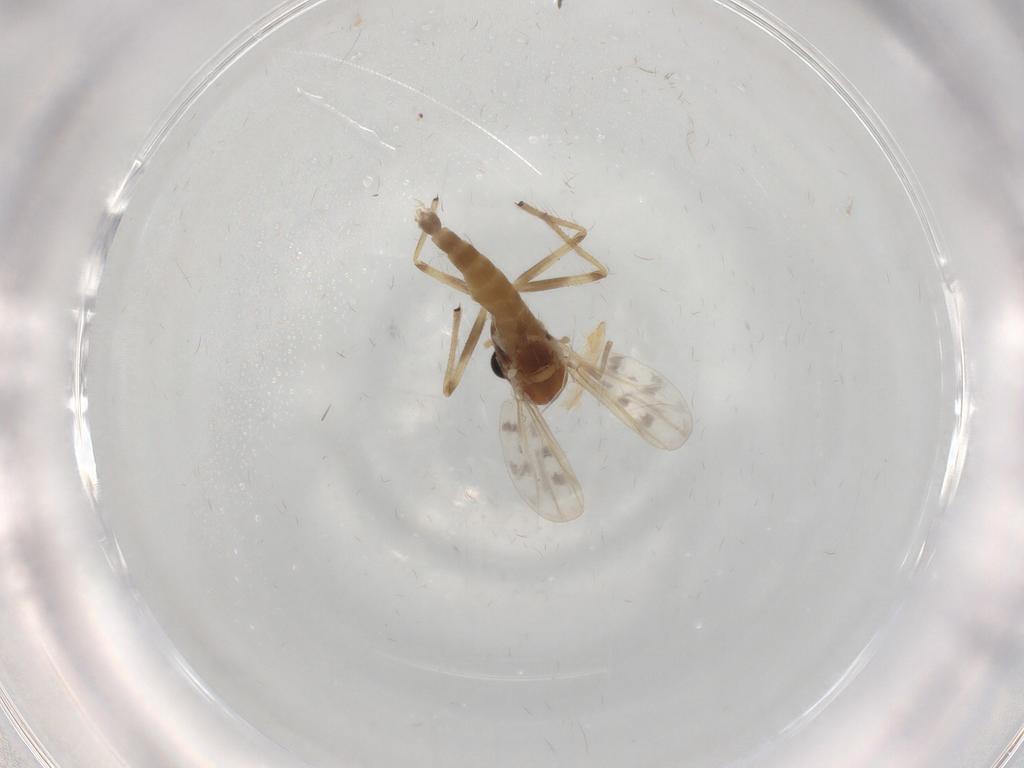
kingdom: Animalia
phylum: Arthropoda
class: Insecta
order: Diptera
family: Chironomidae
